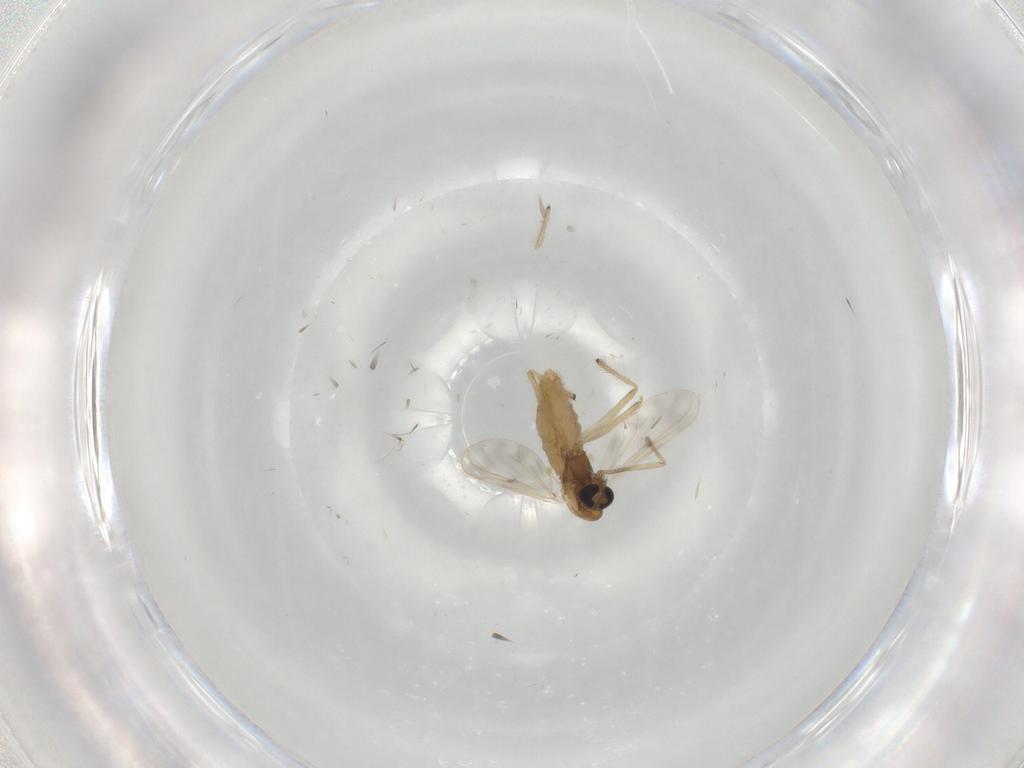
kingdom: Animalia
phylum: Arthropoda
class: Insecta
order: Diptera
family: Chironomidae
